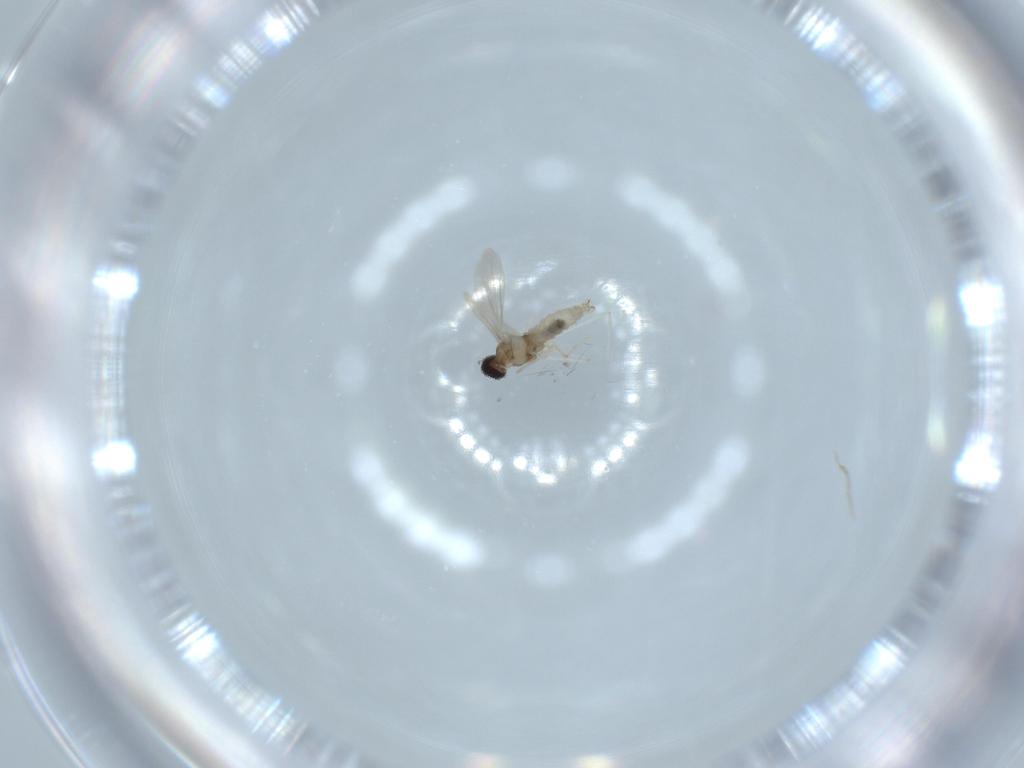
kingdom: Animalia
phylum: Arthropoda
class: Insecta
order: Diptera
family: Cecidomyiidae
